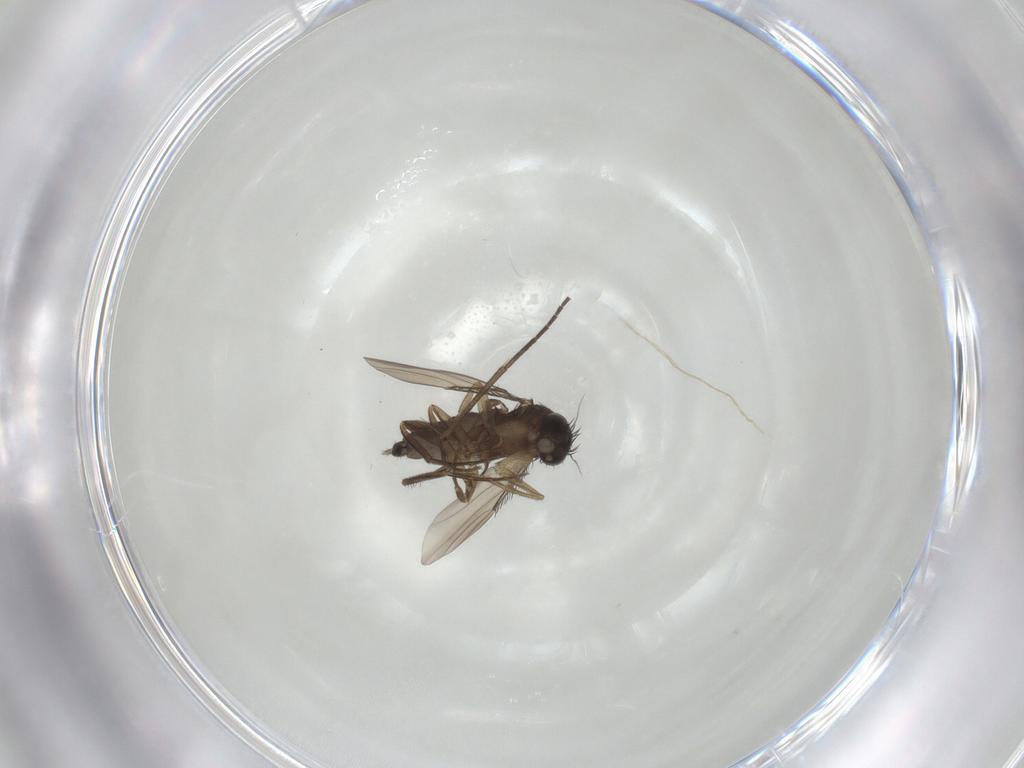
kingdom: Animalia
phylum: Arthropoda
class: Insecta
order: Diptera
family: Phoridae
